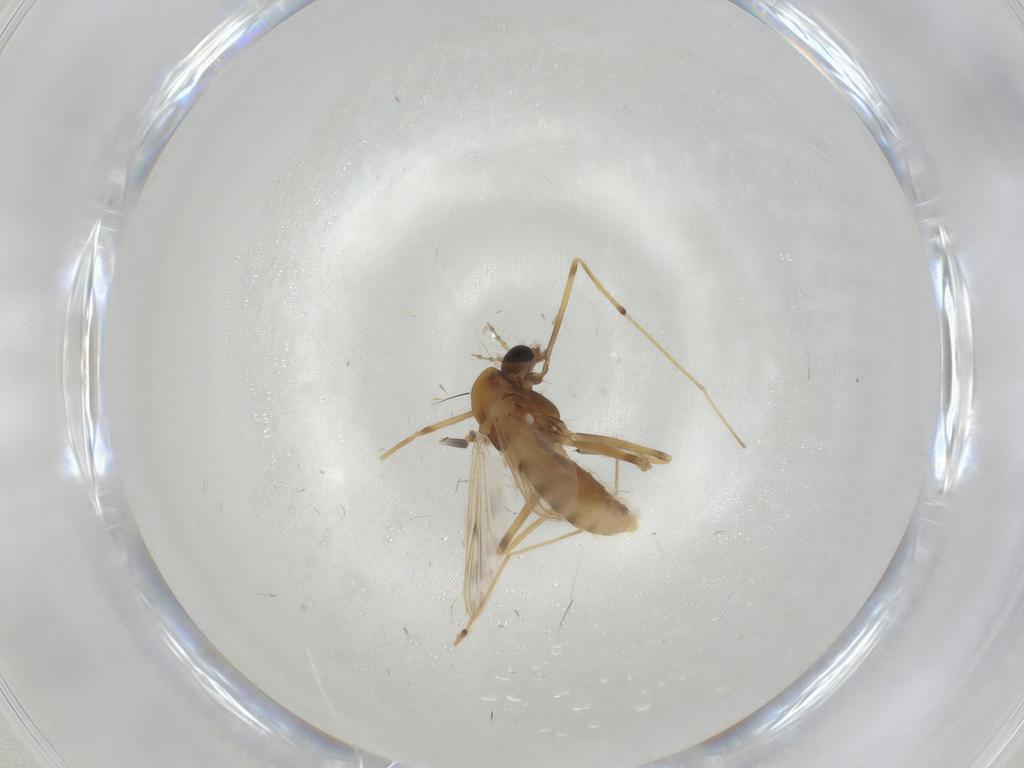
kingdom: Animalia
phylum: Arthropoda
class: Insecta
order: Diptera
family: Chironomidae
